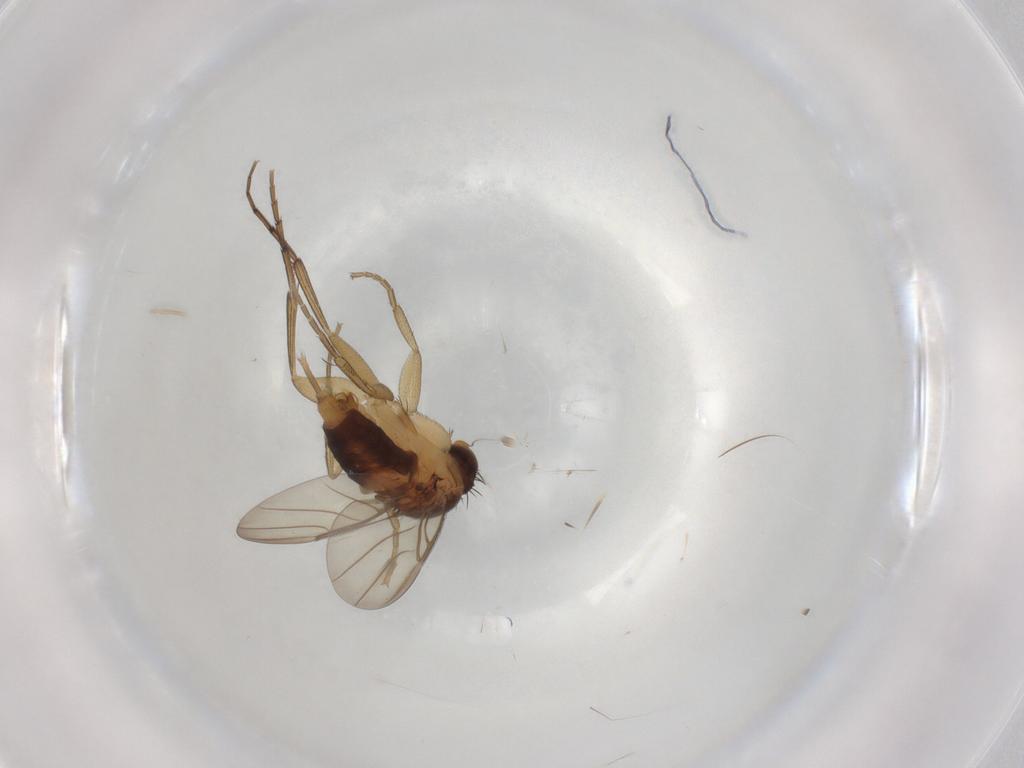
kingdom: Animalia
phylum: Arthropoda
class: Insecta
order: Diptera
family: Phoridae
